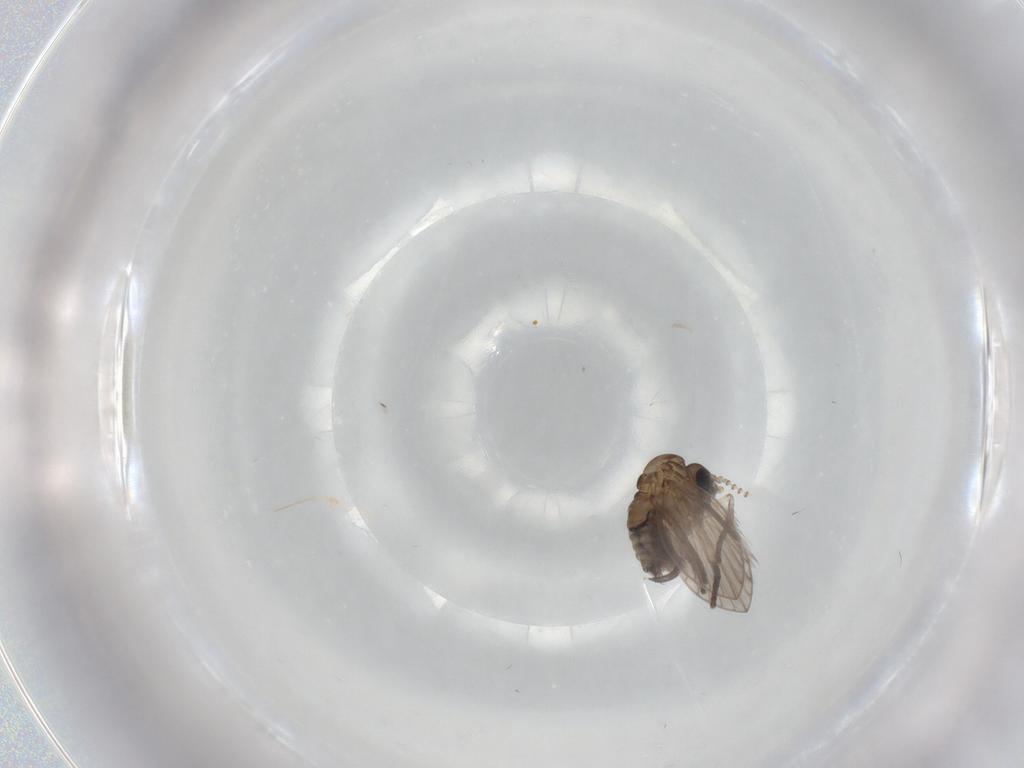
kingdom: Animalia
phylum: Arthropoda
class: Insecta
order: Diptera
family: Psychodidae
